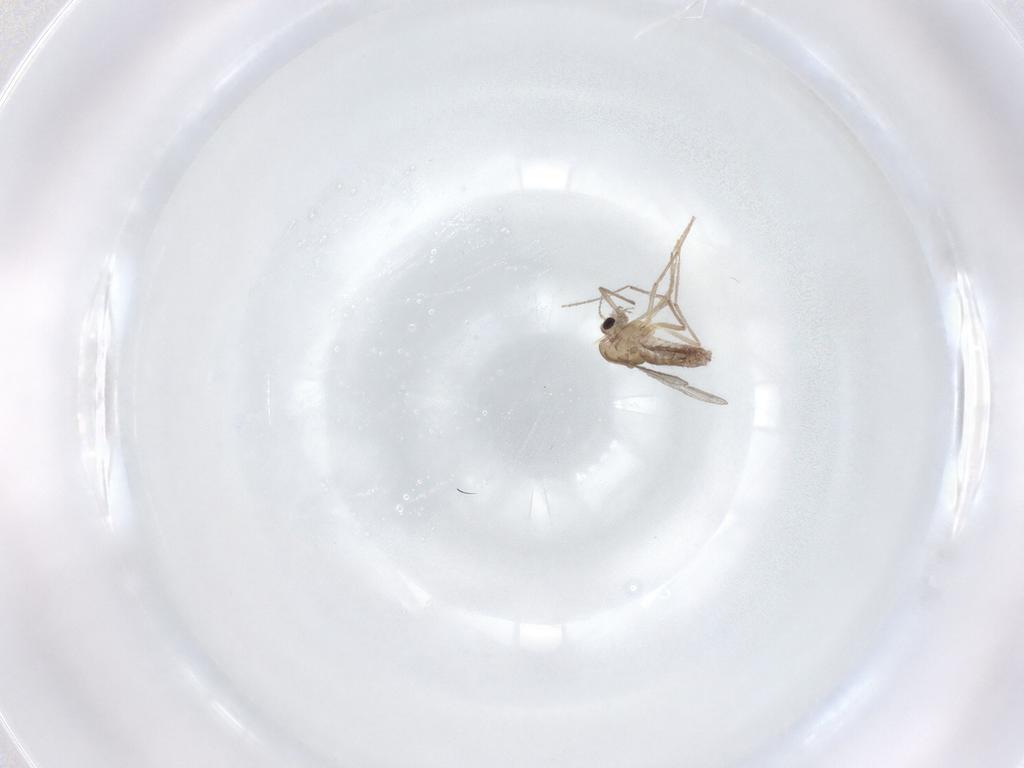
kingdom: Animalia
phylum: Arthropoda
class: Insecta
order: Diptera
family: Chironomidae
